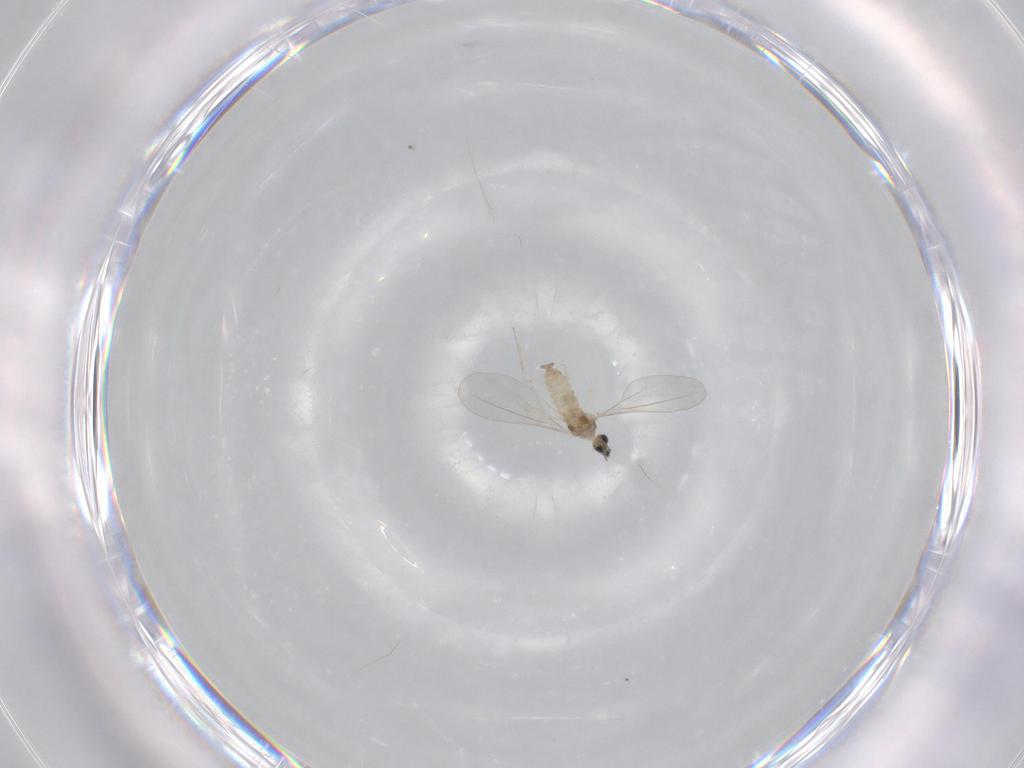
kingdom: Animalia
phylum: Arthropoda
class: Insecta
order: Diptera
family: Cecidomyiidae
